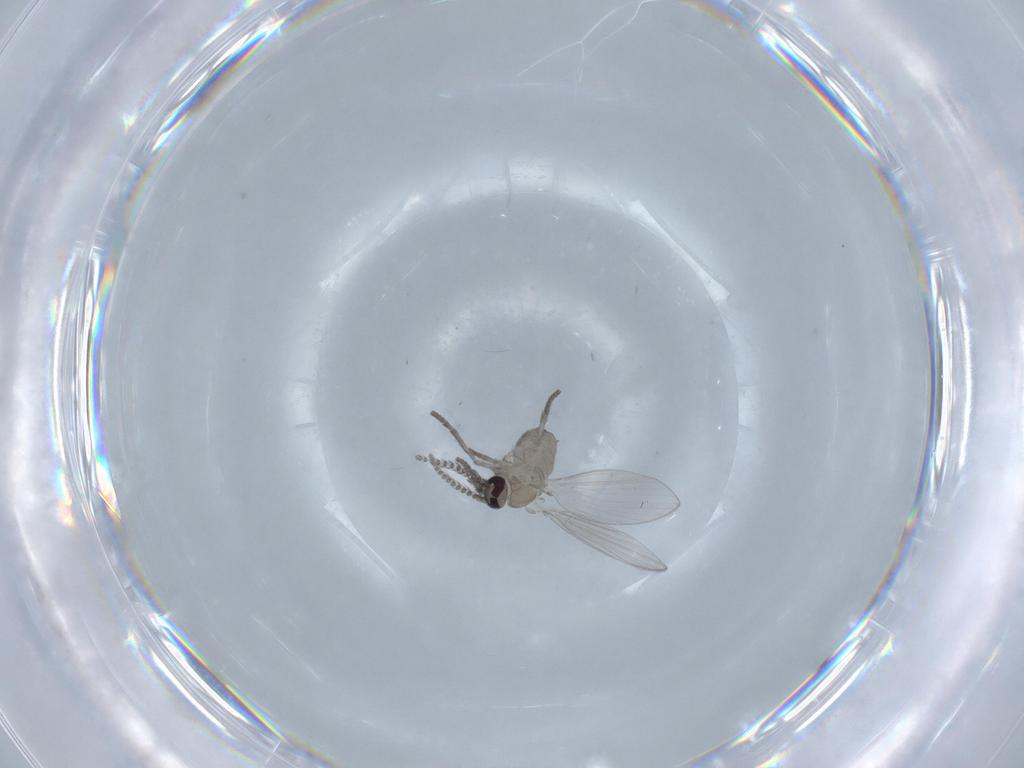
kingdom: Animalia
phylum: Arthropoda
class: Insecta
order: Diptera
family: Psychodidae
